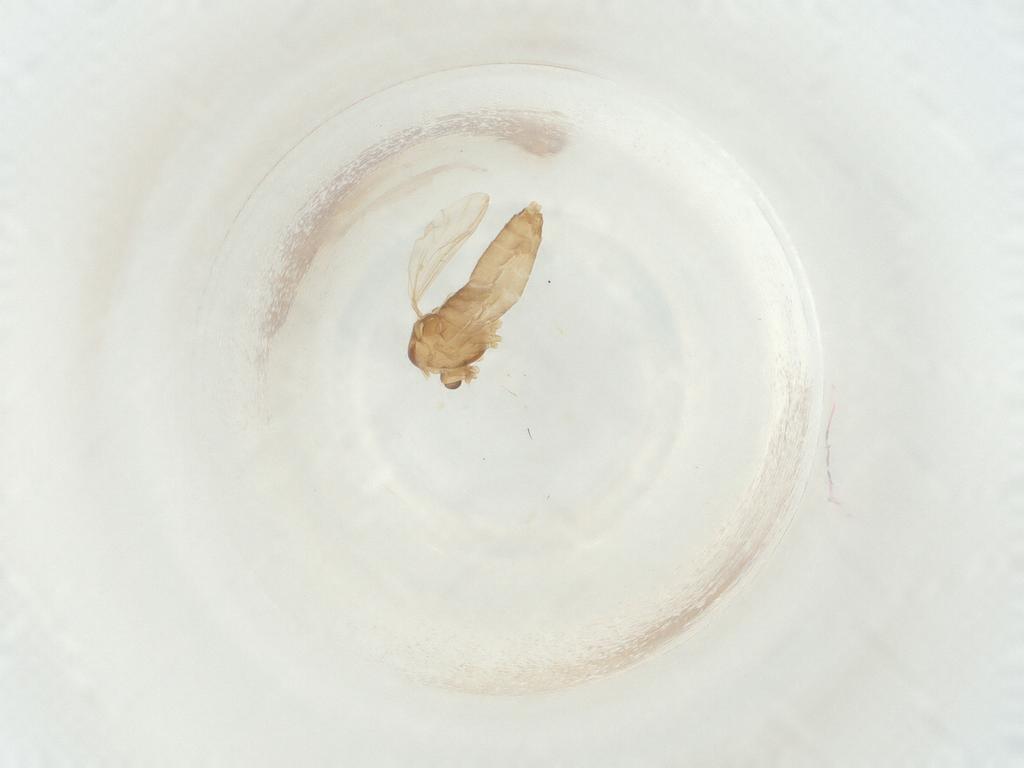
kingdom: Animalia
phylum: Arthropoda
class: Insecta
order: Diptera
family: Chironomidae
